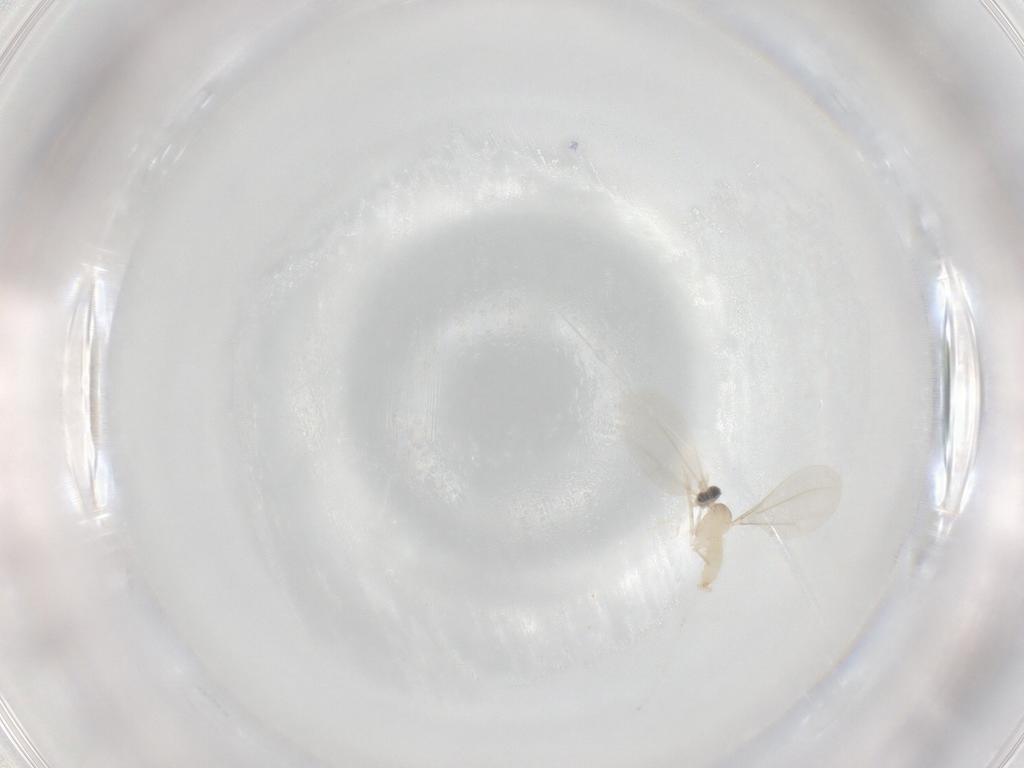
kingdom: Animalia
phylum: Arthropoda
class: Insecta
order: Diptera
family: Cecidomyiidae
